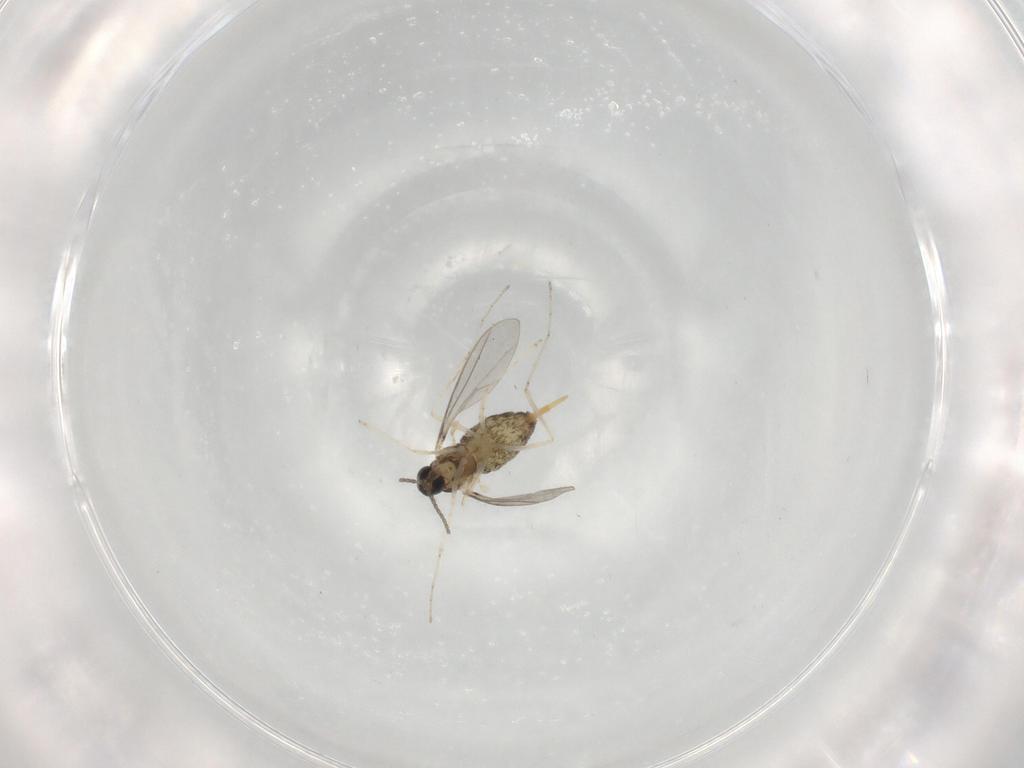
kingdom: Animalia
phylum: Arthropoda
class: Insecta
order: Diptera
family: Cecidomyiidae
